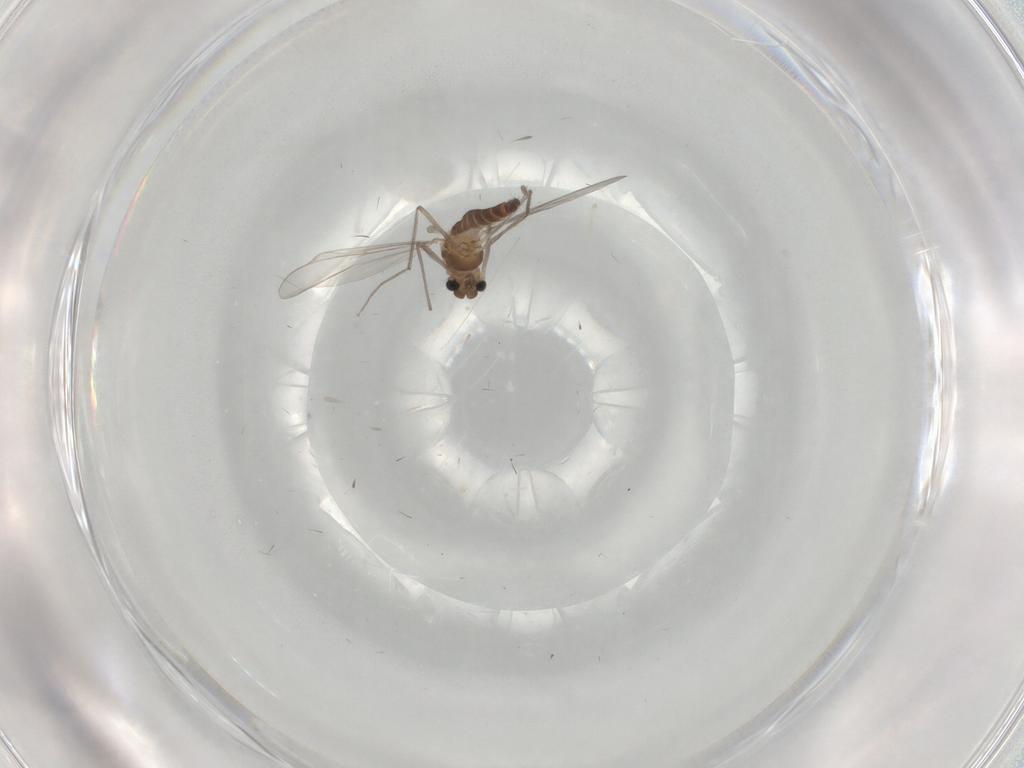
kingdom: Animalia
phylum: Arthropoda
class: Insecta
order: Diptera
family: Chironomidae
